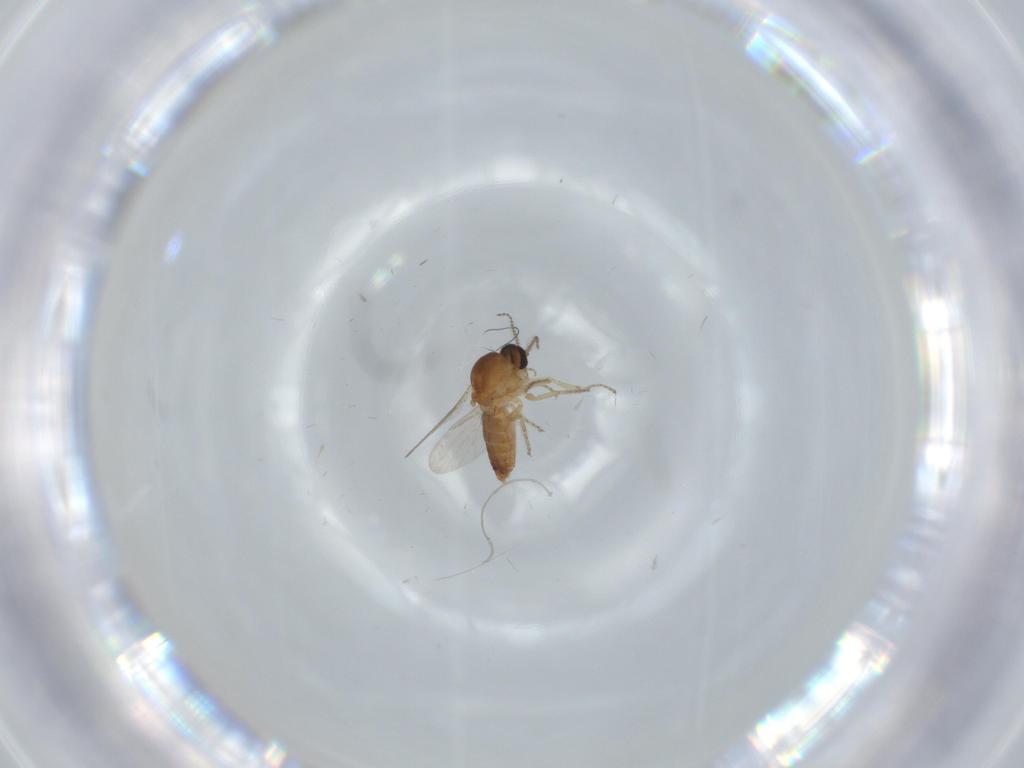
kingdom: Animalia
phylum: Arthropoda
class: Insecta
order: Diptera
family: Ceratopogonidae
